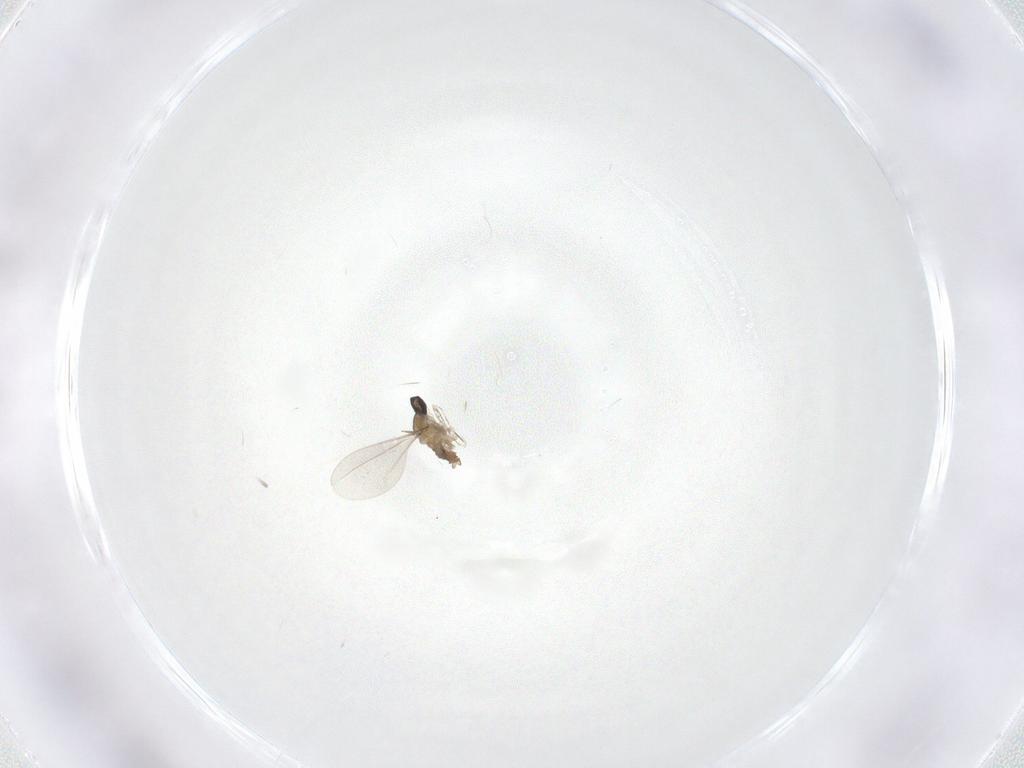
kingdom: Animalia
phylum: Arthropoda
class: Insecta
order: Diptera
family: Cecidomyiidae
